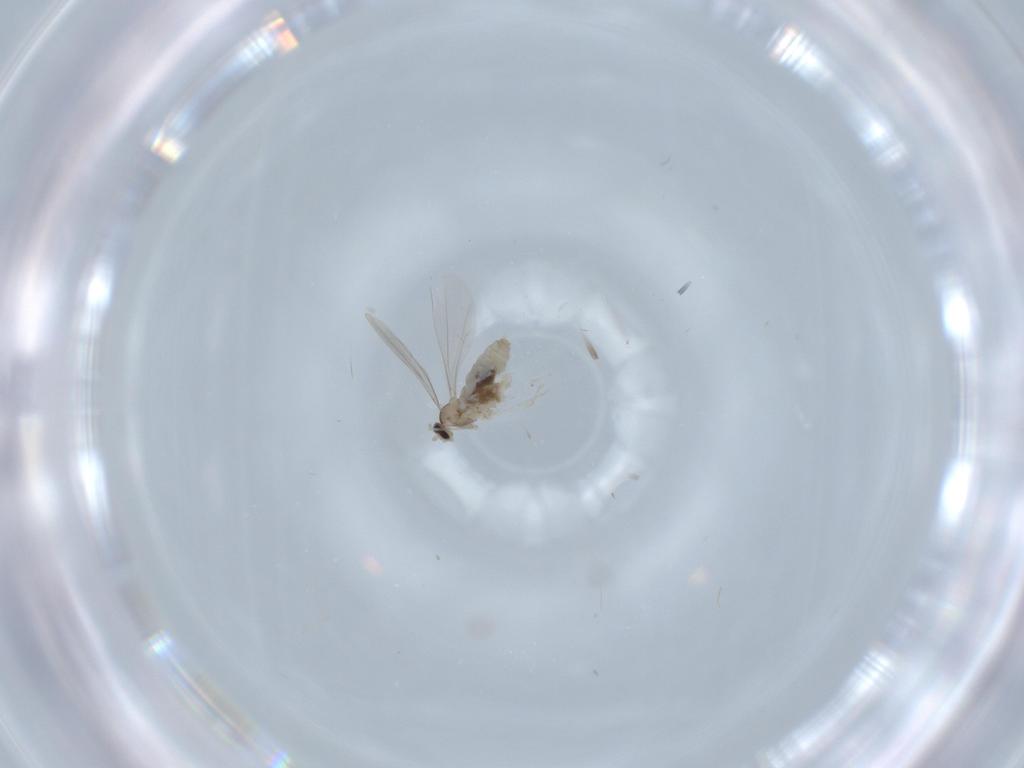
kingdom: Animalia
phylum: Arthropoda
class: Insecta
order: Diptera
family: Cecidomyiidae
